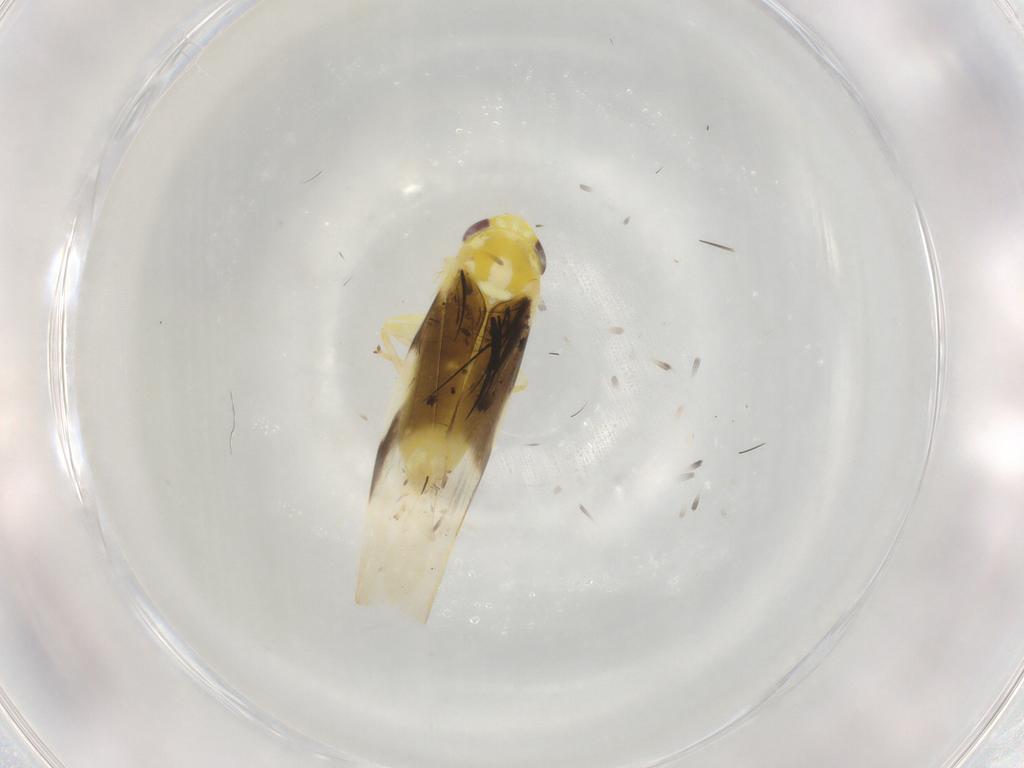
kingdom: Animalia
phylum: Arthropoda
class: Insecta
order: Hemiptera
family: Cicadellidae
